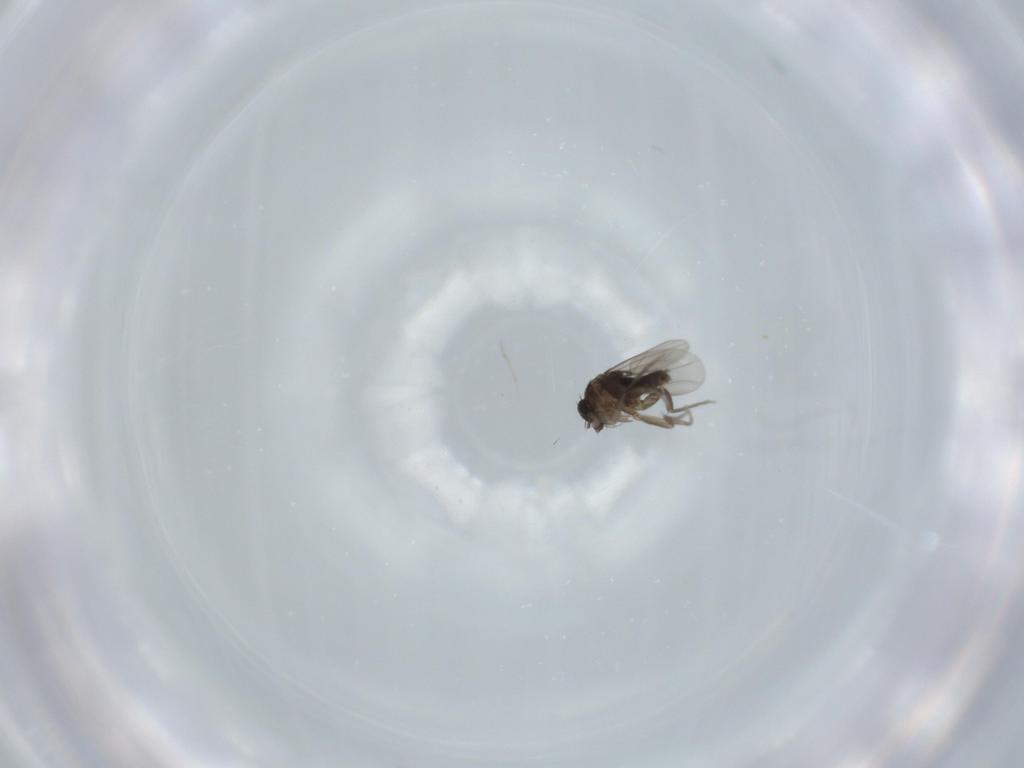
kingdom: Animalia
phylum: Arthropoda
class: Insecta
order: Diptera
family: Phoridae
